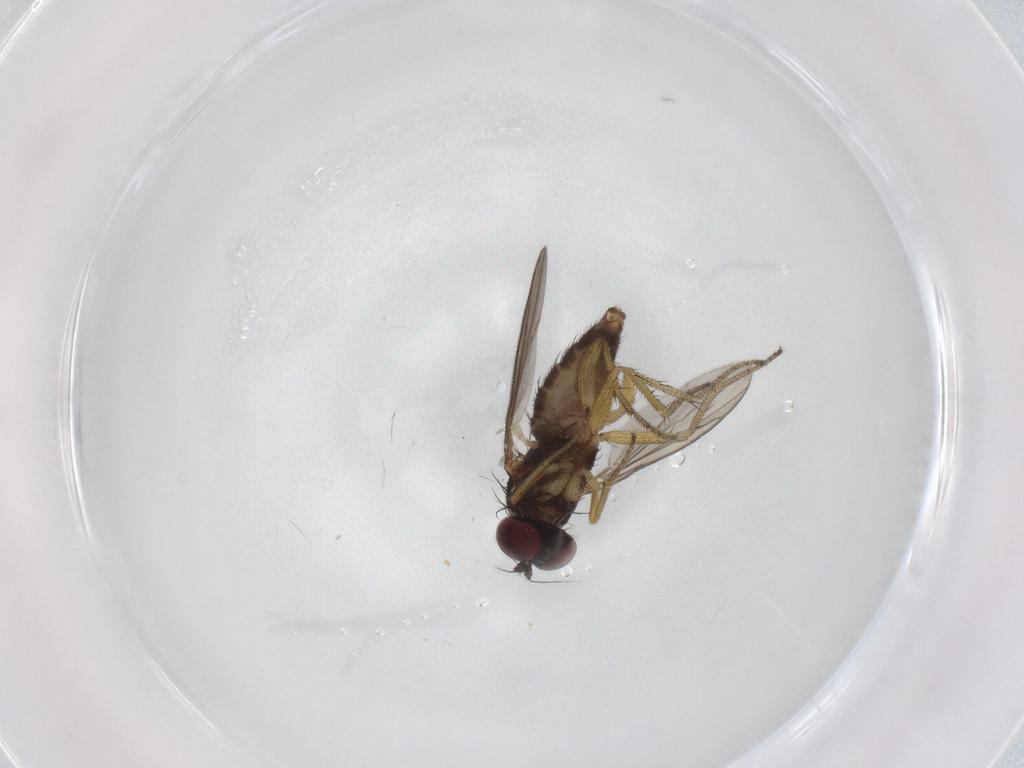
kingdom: Animalia
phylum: Arthropoda
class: Insecta
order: Diptera
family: Dolichopodidae
